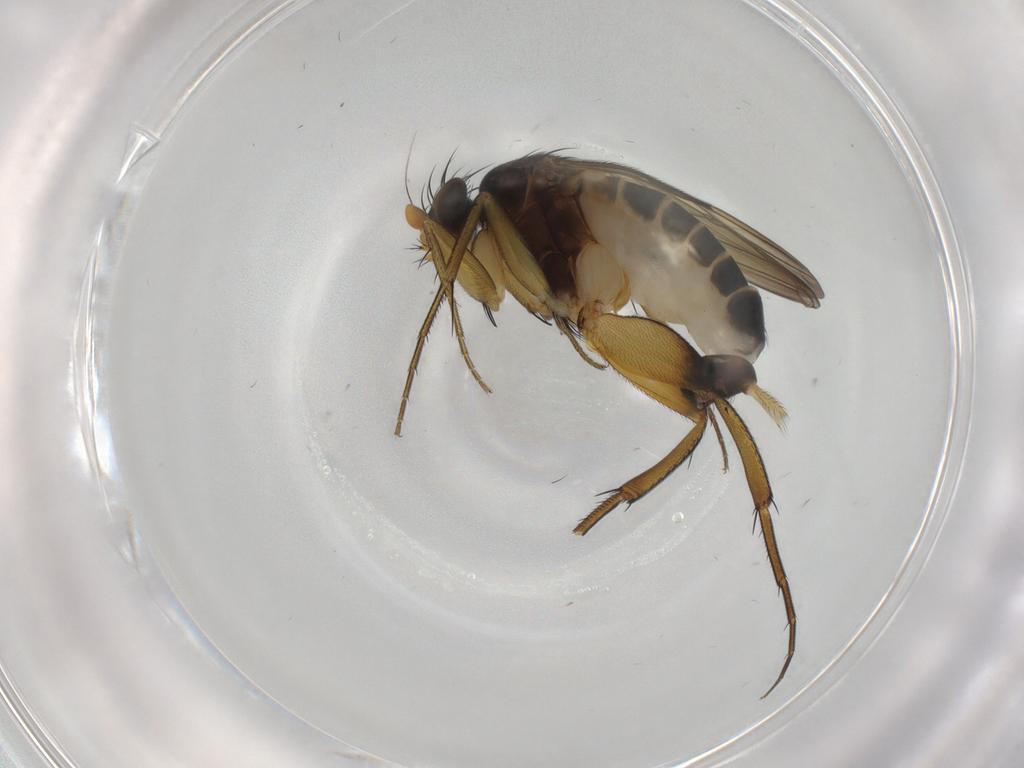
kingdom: Animalia
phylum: Arthropoda
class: Insecta
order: Diptera
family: Phoridae
